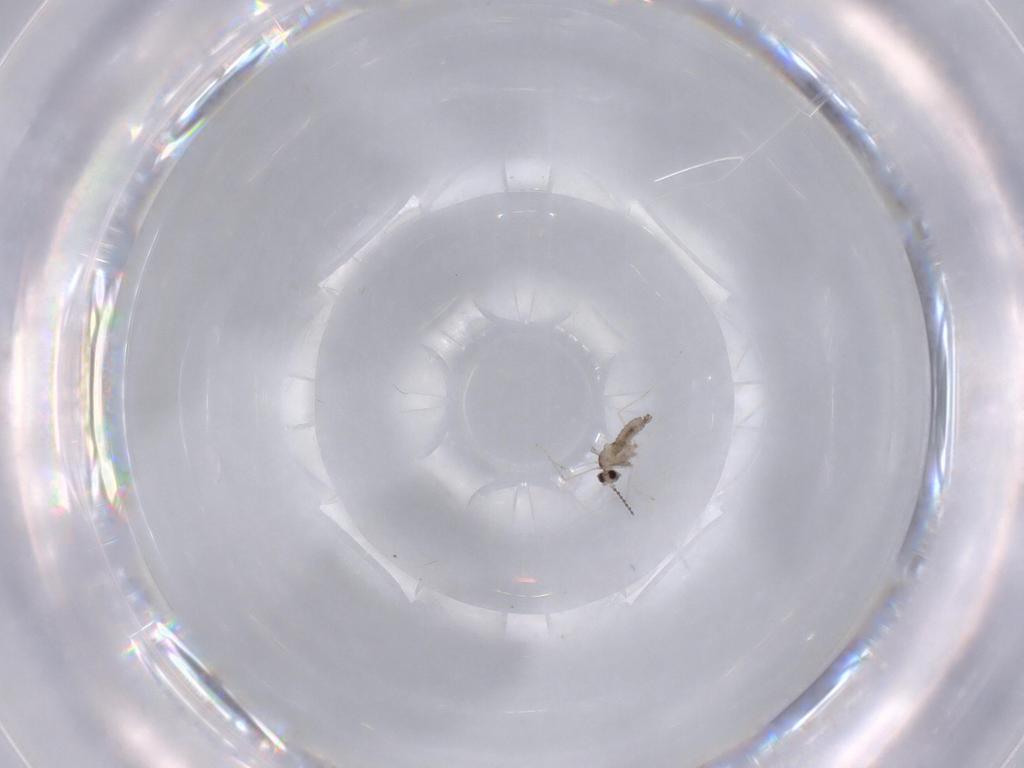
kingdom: Animalia
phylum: Arthropoda
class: Insecta
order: Diptera
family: Cecidomyiidae
